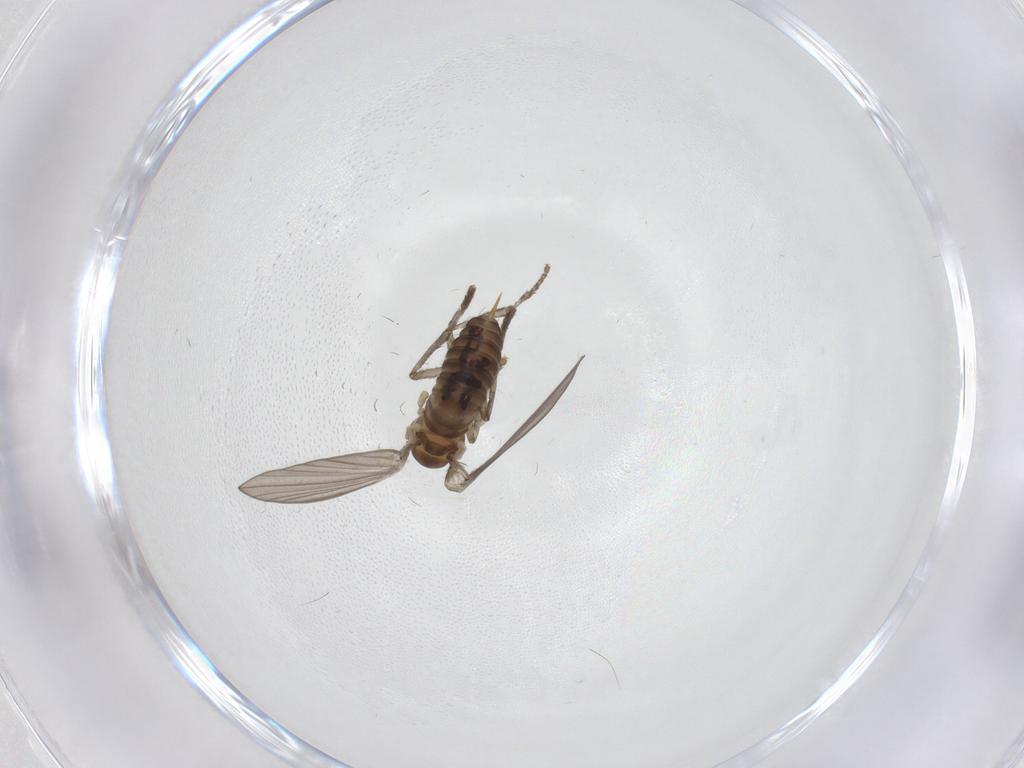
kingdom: Animalia
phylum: Arthropoda
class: Insecta
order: Diptera
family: Psychodidae
